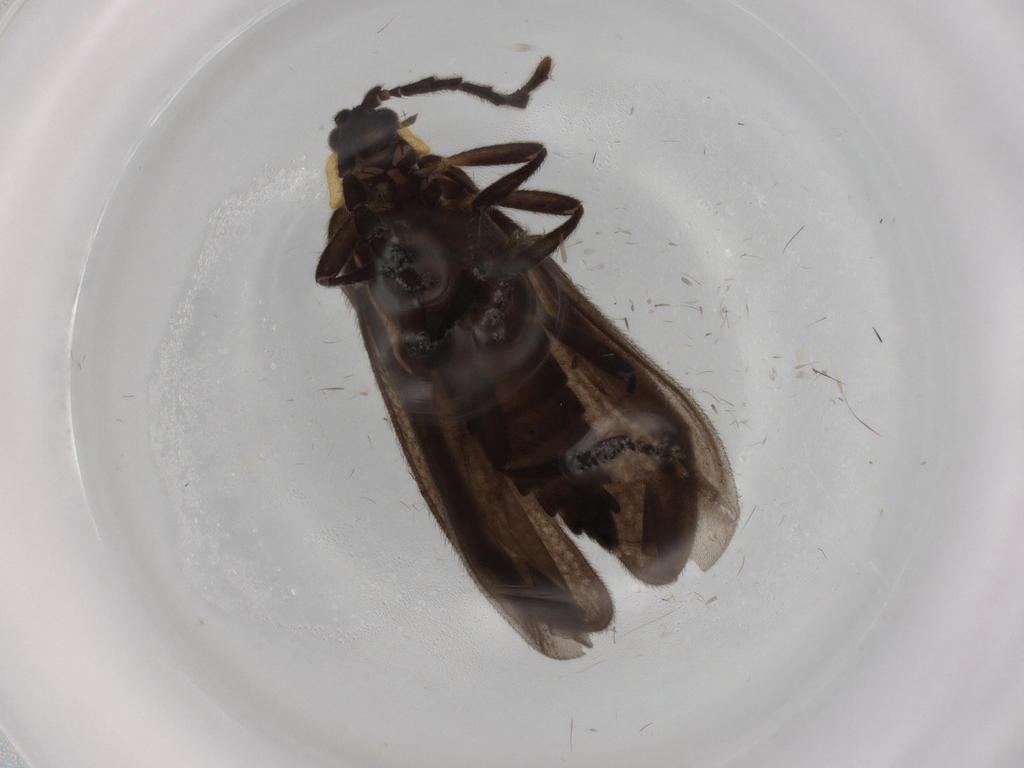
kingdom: Animalia
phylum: Arthropoda
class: Insecta
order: Coleoptera
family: Lycidae
